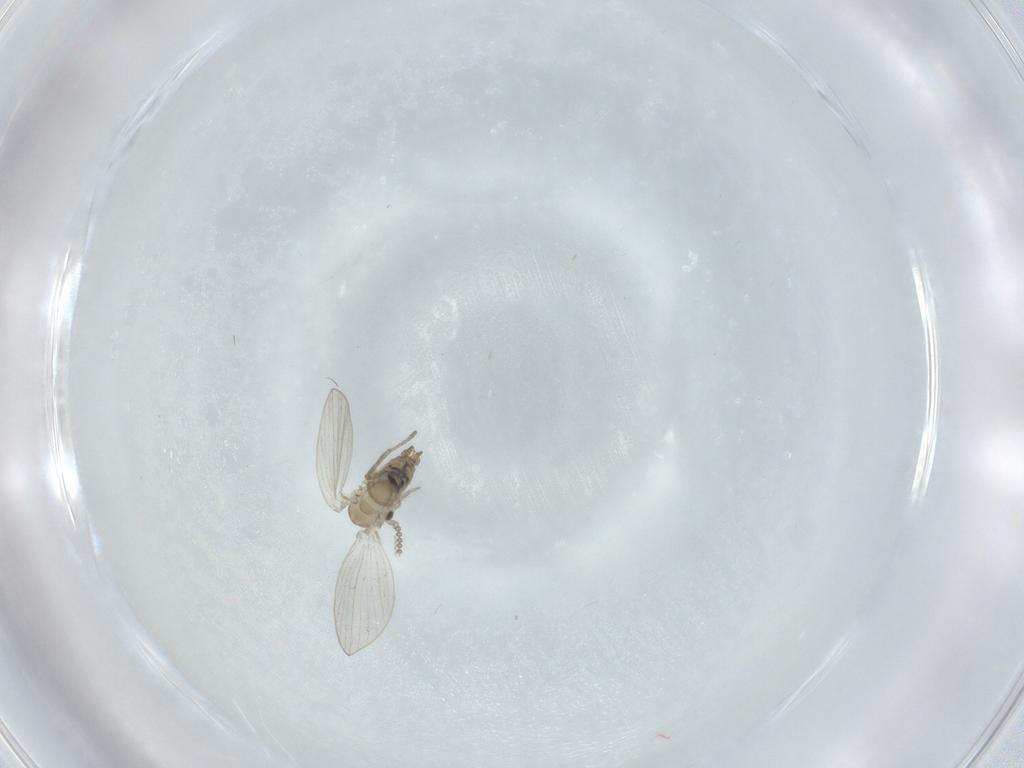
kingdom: Animalia
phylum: Arthropoda
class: Insecta
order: Diptera
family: Psychodidae
